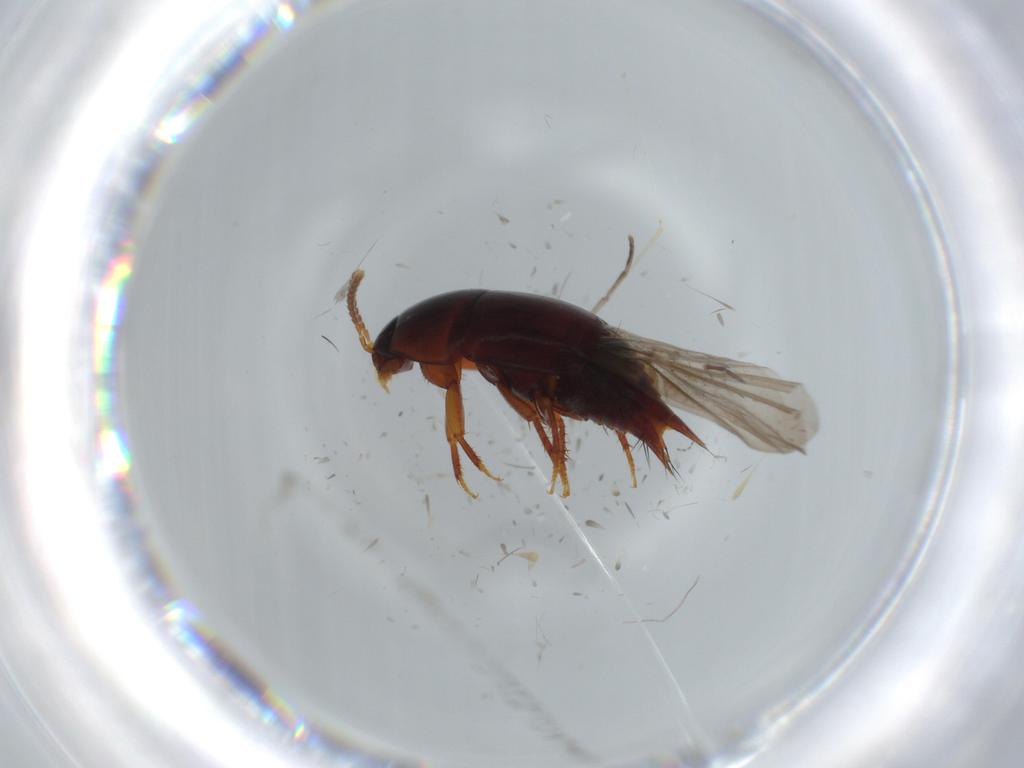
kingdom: Animalia
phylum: Arthropoda
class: Insecta
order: Coleoptera
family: Staphylinidae
